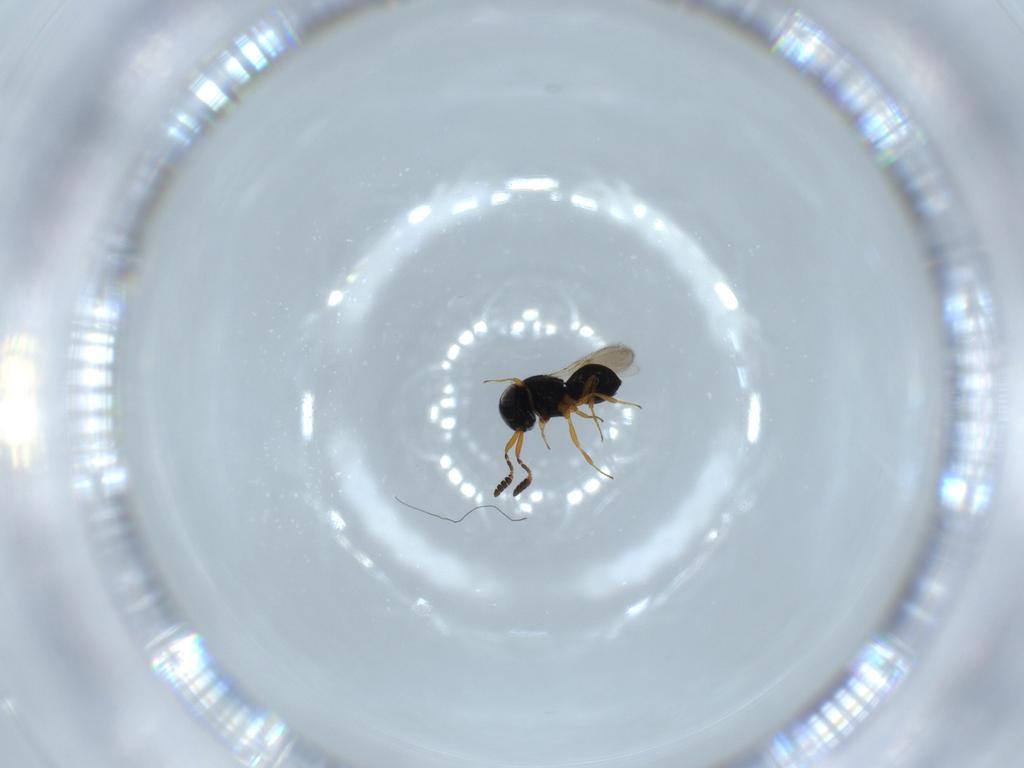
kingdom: Animalia
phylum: Arthropoda
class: Insecta
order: Hymenoptera
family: Scelionidae
